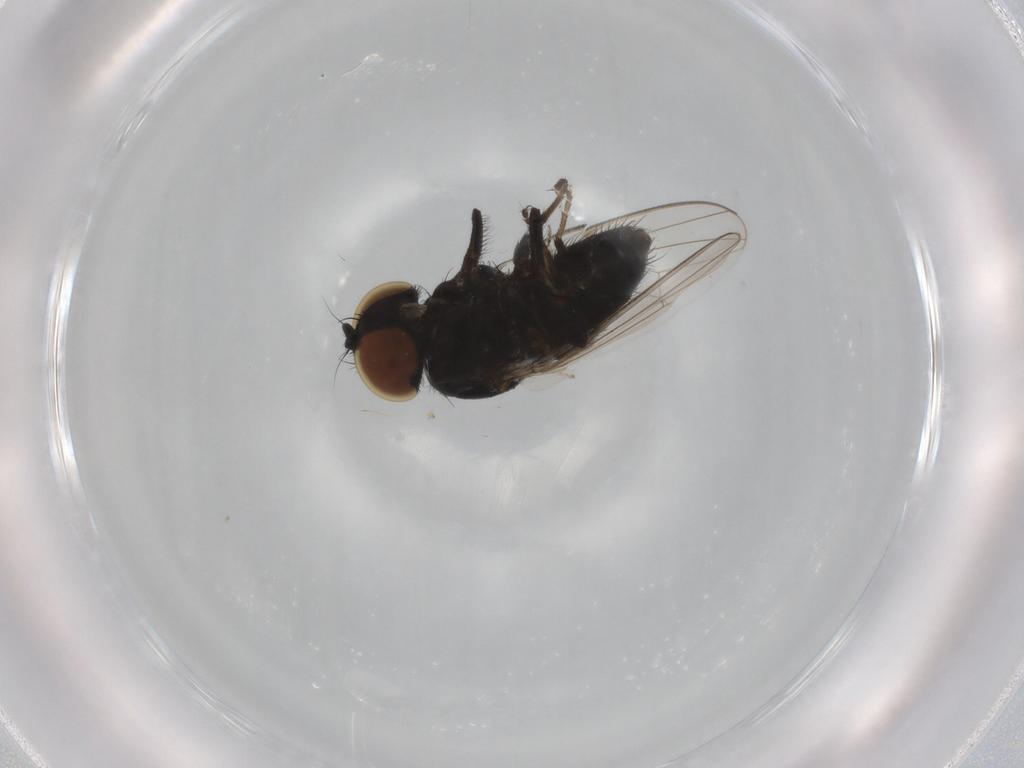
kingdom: Animalia
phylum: Arthropoda
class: Insecta
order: Diptera
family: Milichiidae
